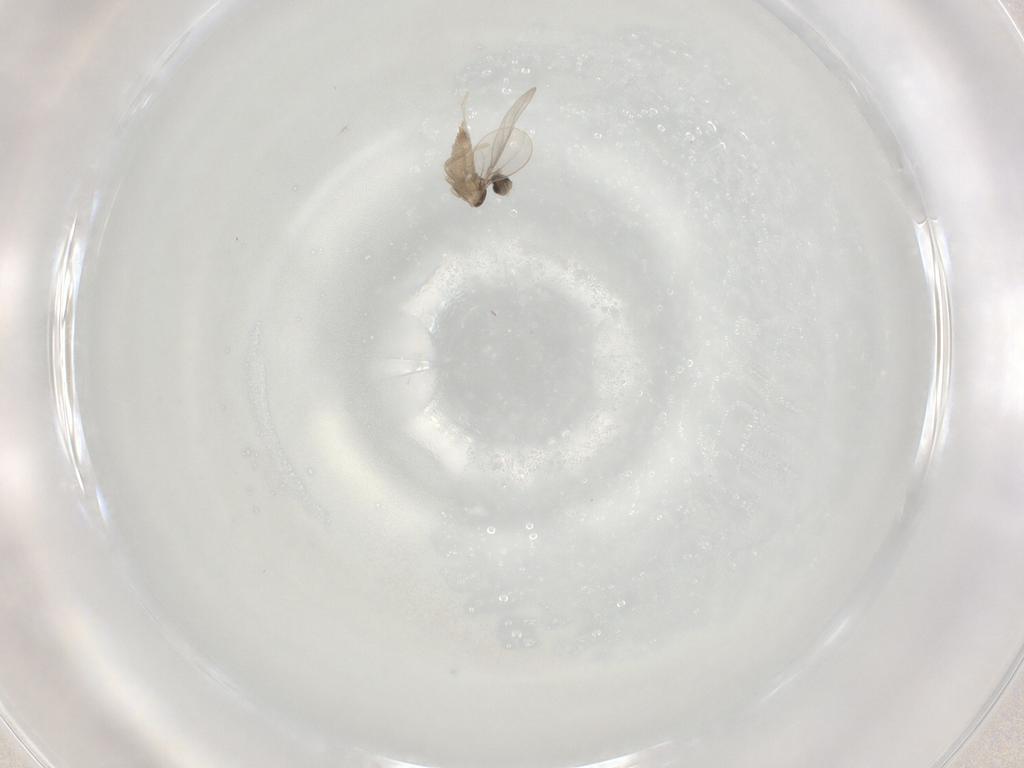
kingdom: Animalia
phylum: Arthropoda
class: Insecta
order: Diptera
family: Cecidomyiidae
